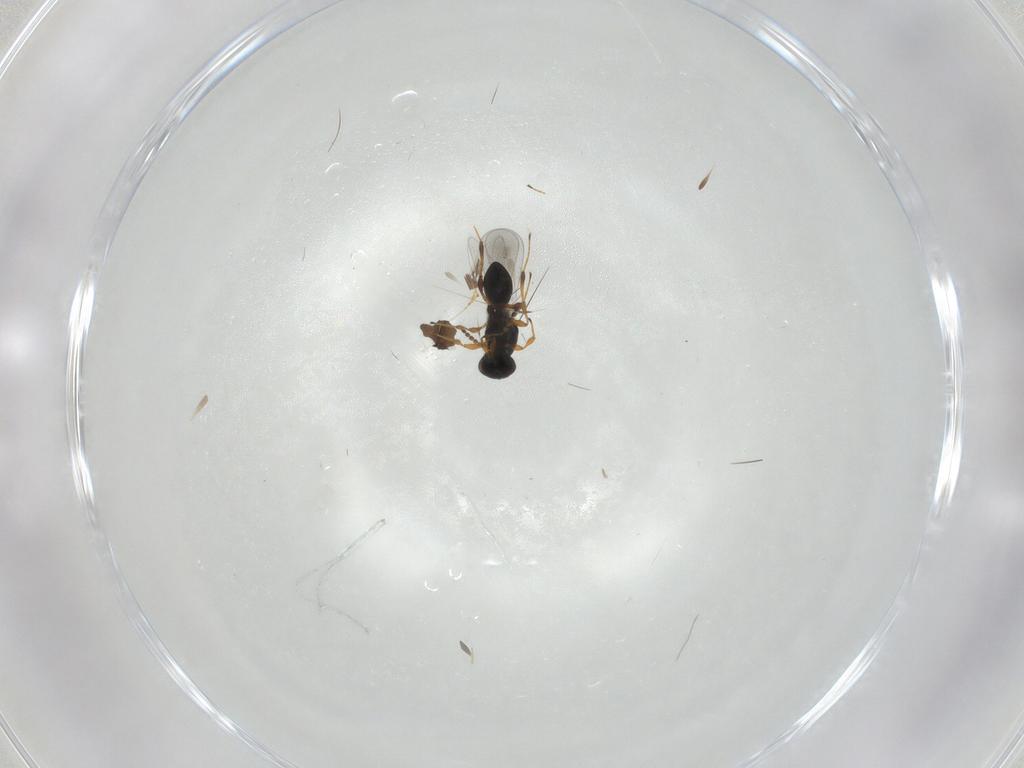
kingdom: Animalia
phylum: Arthropoda
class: Insecta
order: Hymenoptera
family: Bethylidae
